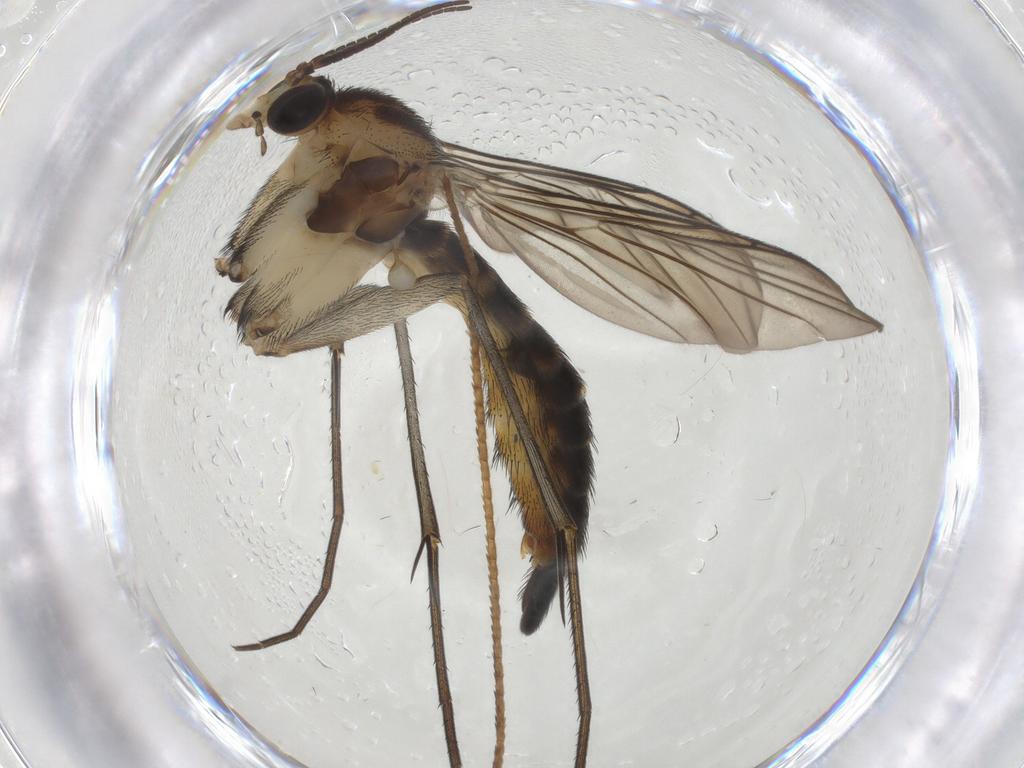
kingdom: Animalia
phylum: Arthropoda
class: Insecta
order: Diptera
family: Keroplatidae
